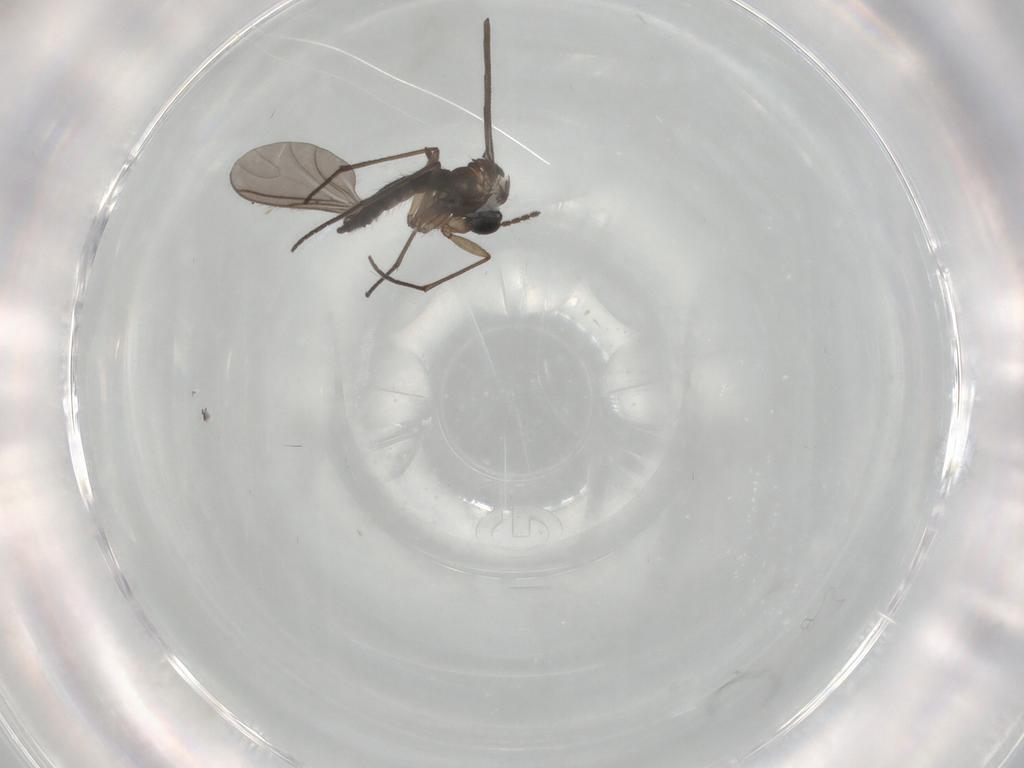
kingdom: Animalia
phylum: Arthropoda
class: Insecta
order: Diptera
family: Sciaridae
